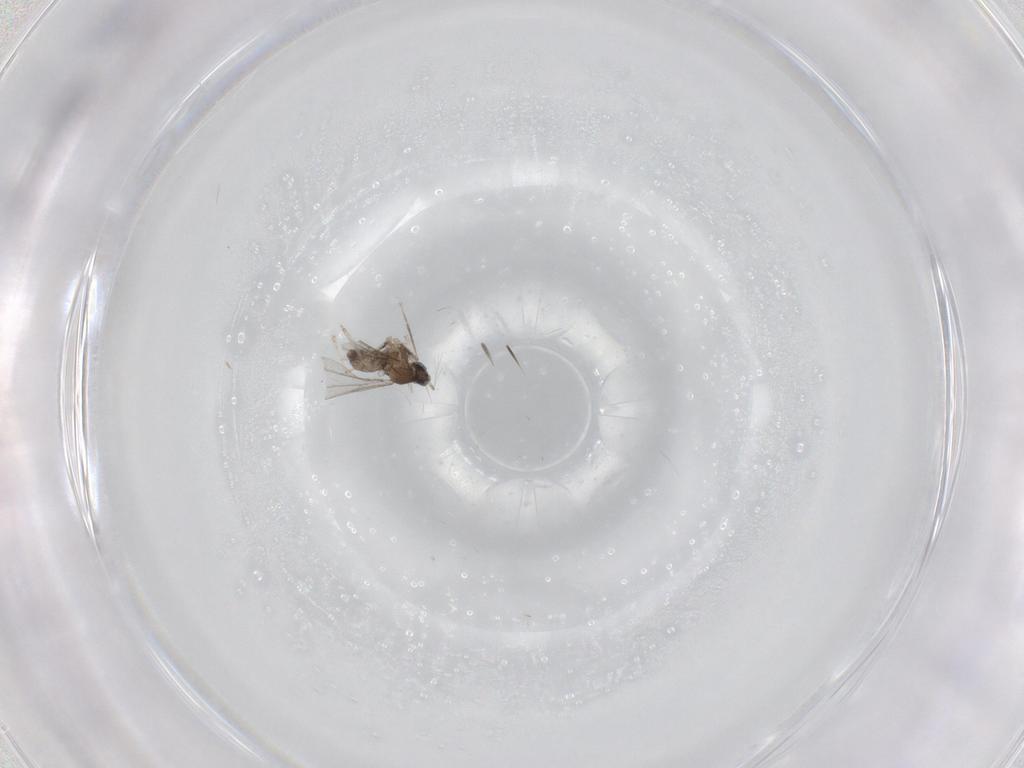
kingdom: Animalia
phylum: Arthropoda
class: Insecta
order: Diptera
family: Cecidomyiidae
